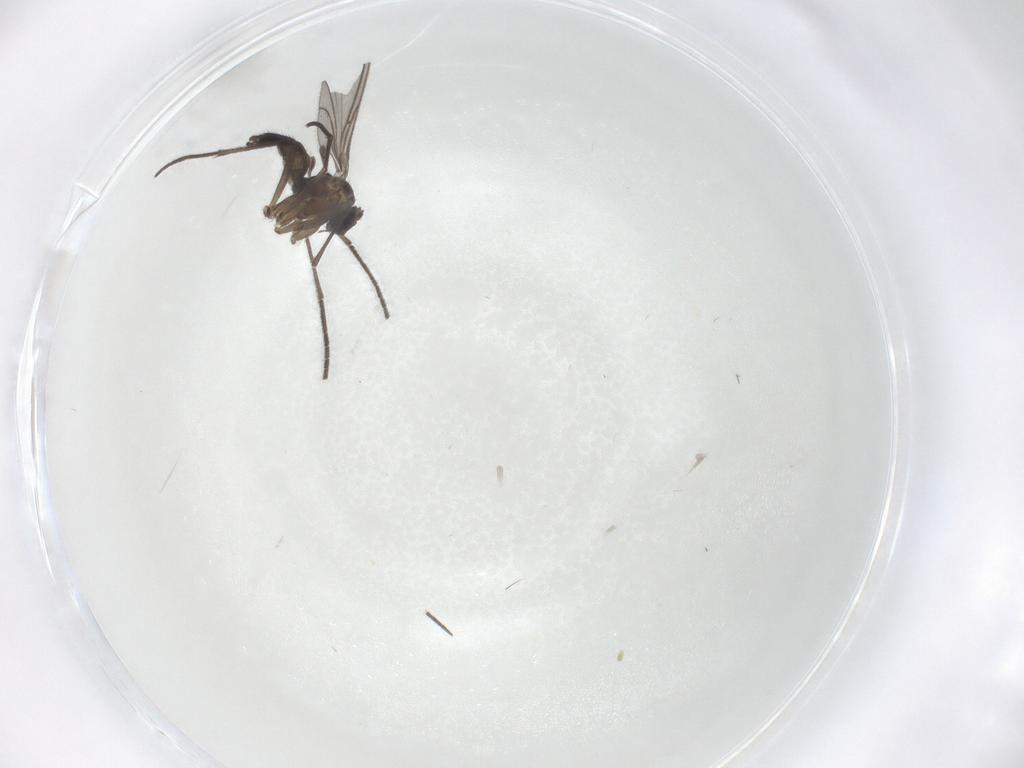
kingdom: Animalia
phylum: Arthropoda
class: Insecta
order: Diptera
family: Sciaridae
